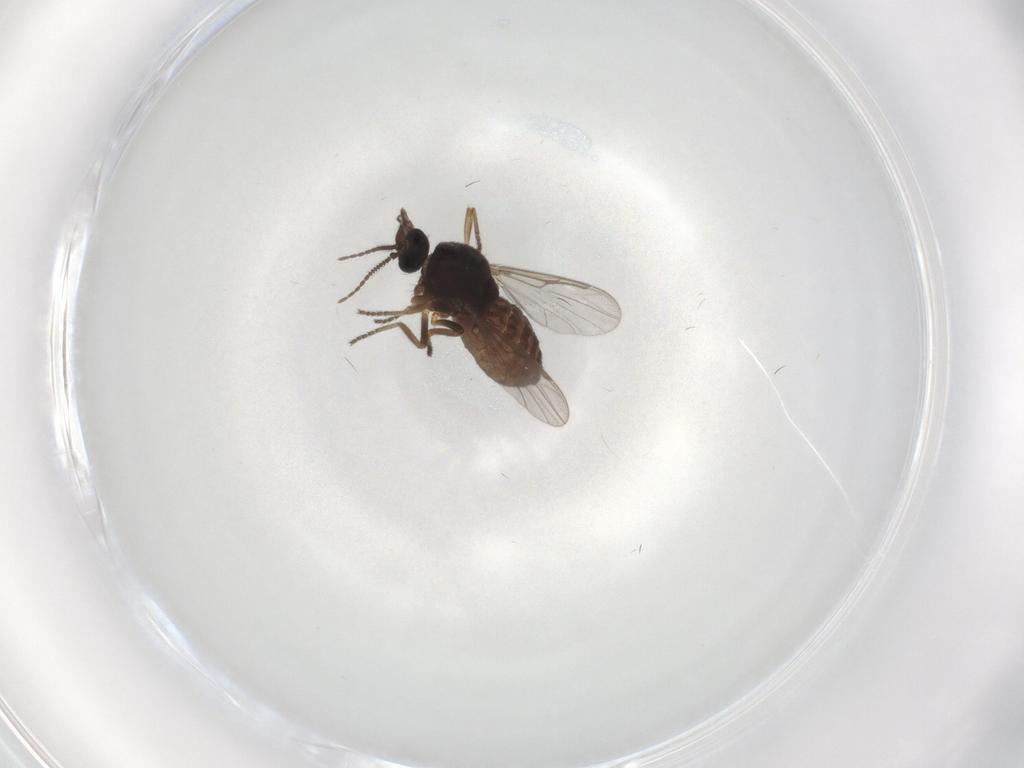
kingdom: Animalia
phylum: Arthropoda
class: Insecta
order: Diptera
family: Ceratopogonidae
